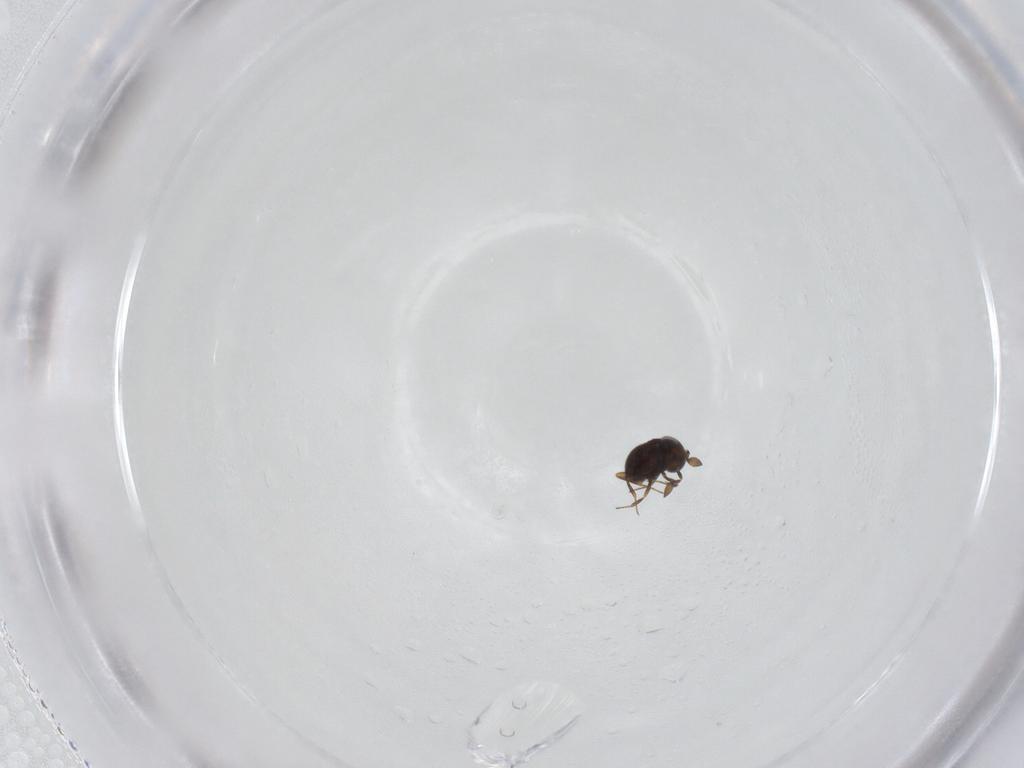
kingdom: Animalia
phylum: Arthropoda
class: Insecta
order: Hymenoptera
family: Scelionidae
